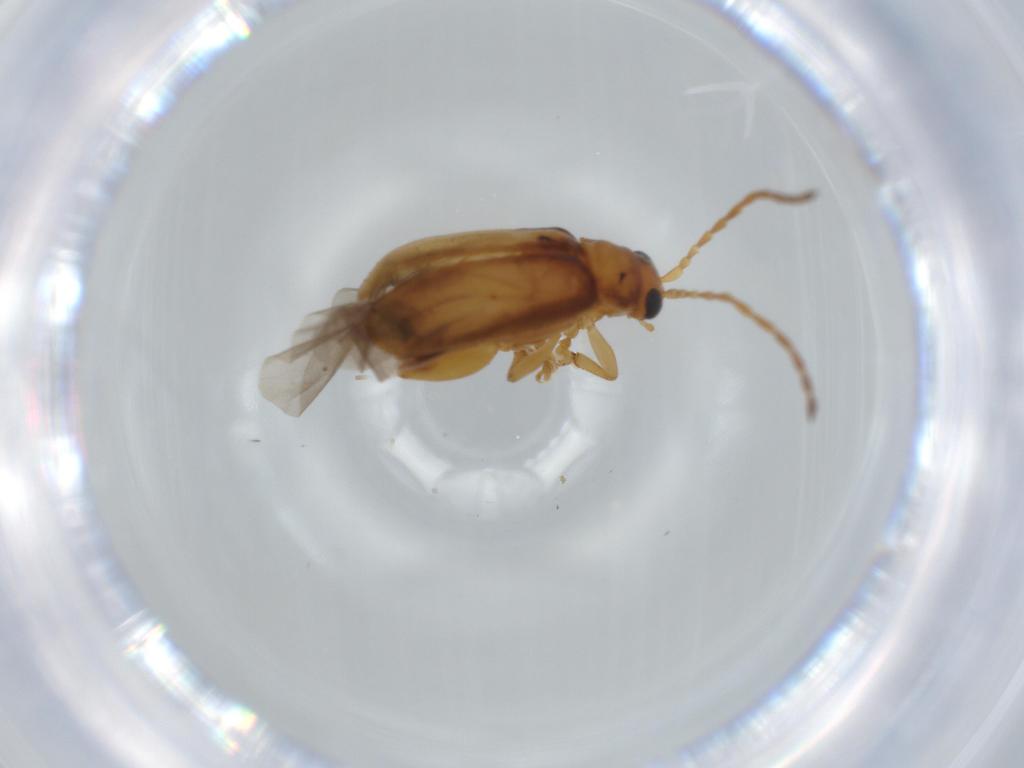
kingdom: Animalia
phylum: Arthropoda
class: Insecta
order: Coleoptera
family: Chrysomelidae
